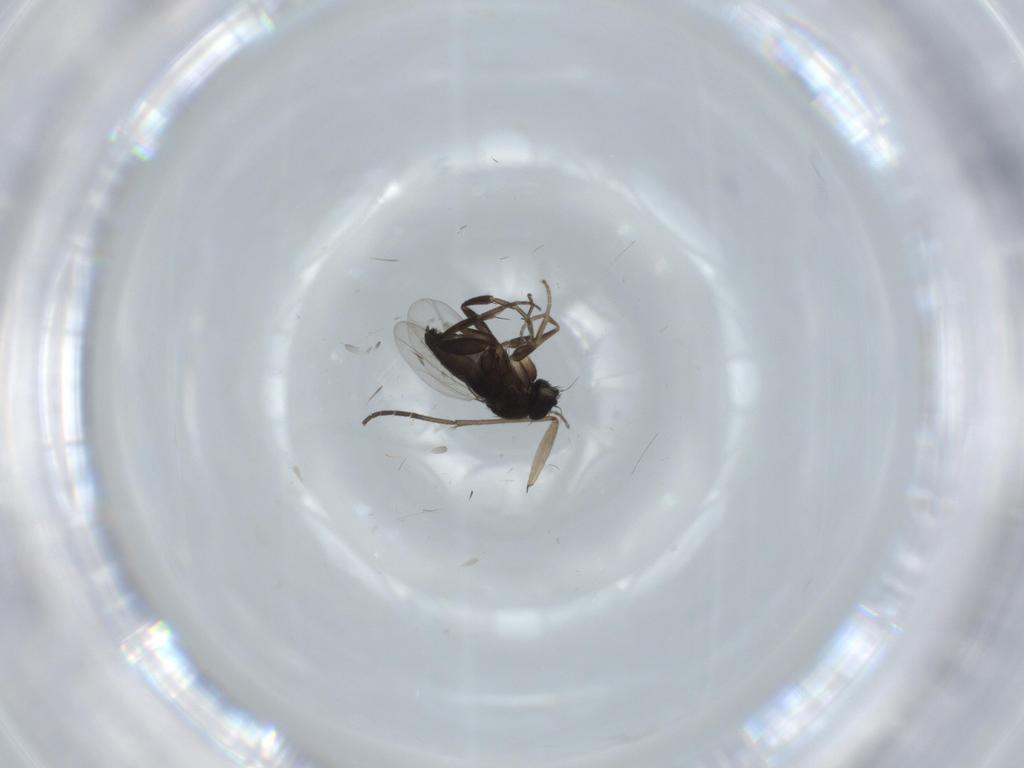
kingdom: Animalia
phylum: Arthropoda
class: Insecta
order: Diptera
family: Phoridae
